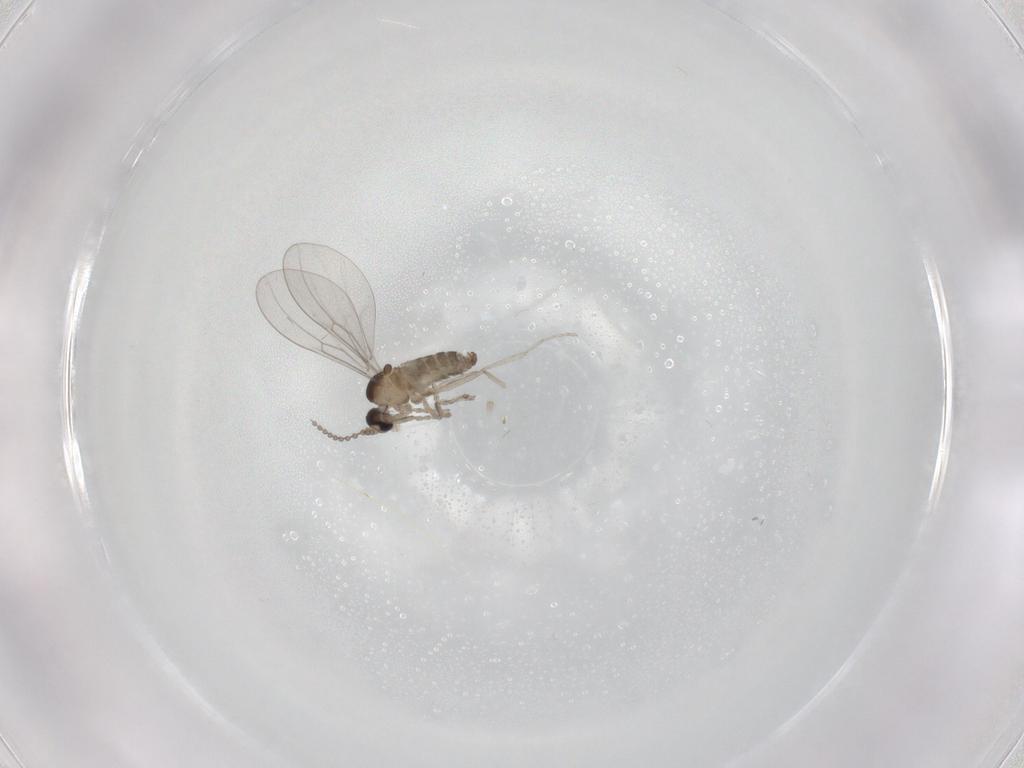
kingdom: Animalia
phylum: Arthropoda
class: Insecta
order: Diptera
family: Cecidomyiidae
